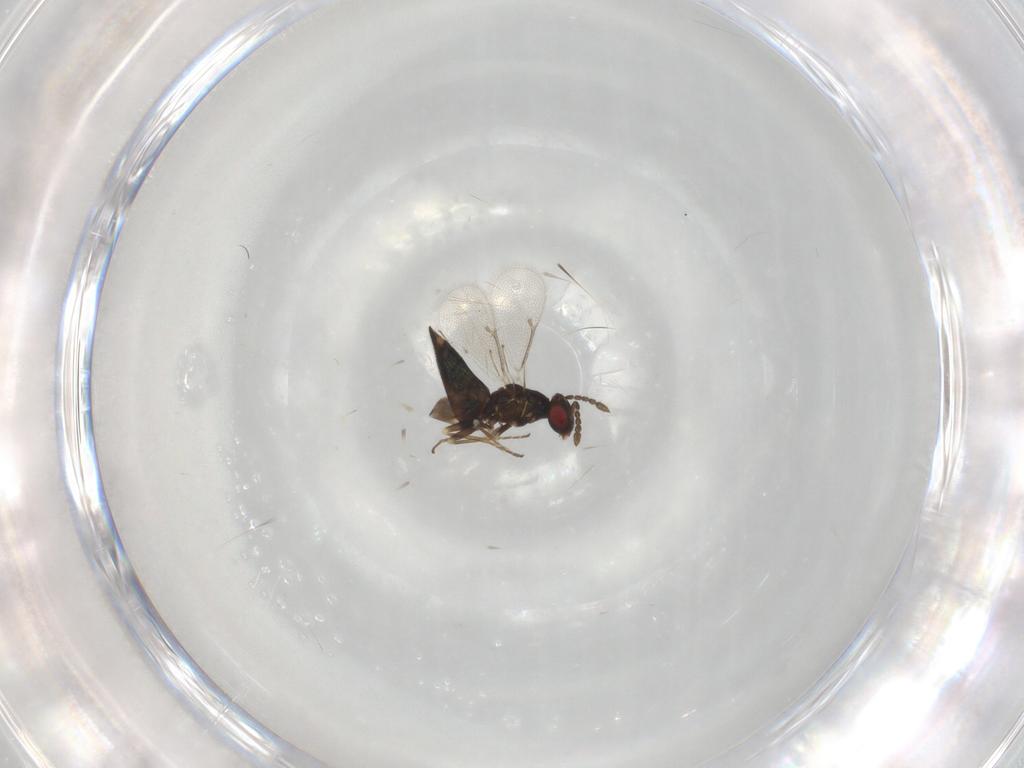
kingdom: Animalia
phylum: Arthropoda
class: Insecta
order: Hymenoptera
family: Eulophidae
